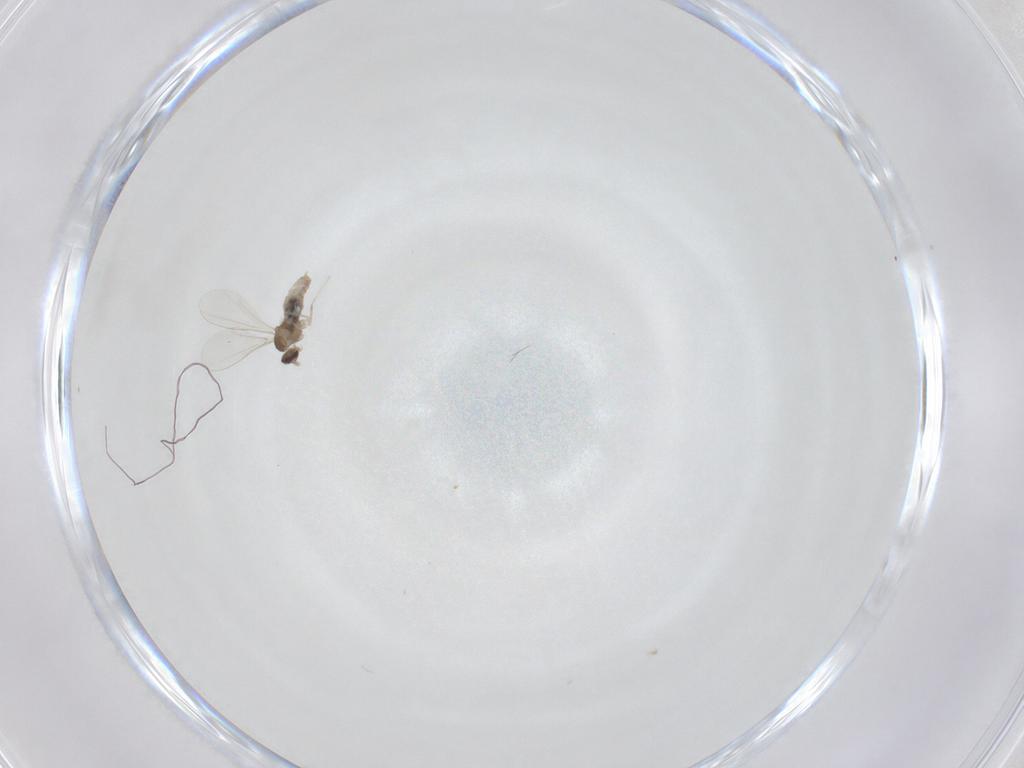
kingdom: Animalia
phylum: Arthropoda
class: Insecta
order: Diptera
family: Cecidomyiidae
